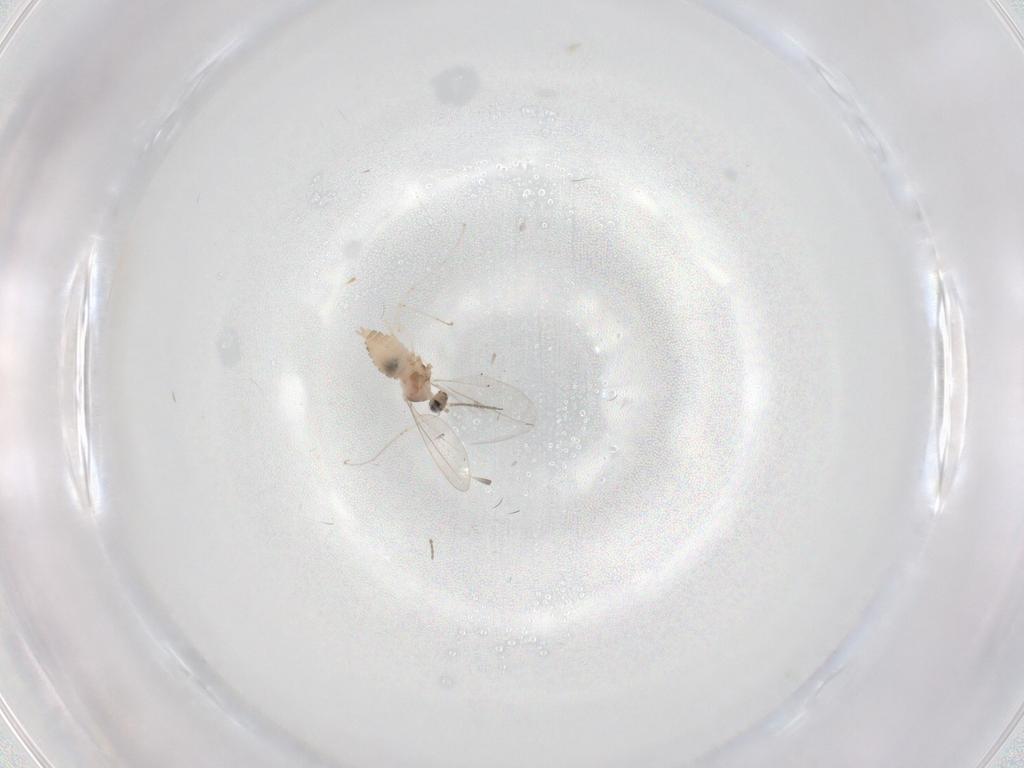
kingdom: Animalia
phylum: Arthropoda
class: Insecta
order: Diptera
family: Cecidomyiidae
